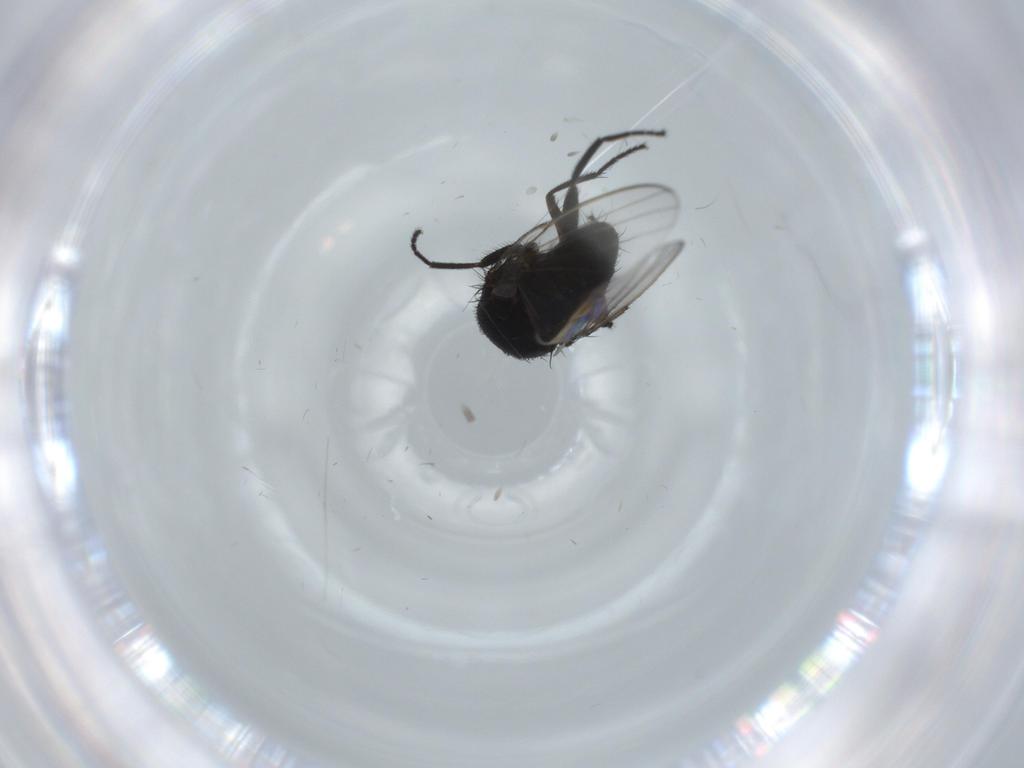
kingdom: Animalia
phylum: Arthropoda
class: Insecta
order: Diptera
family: Milichiidae
